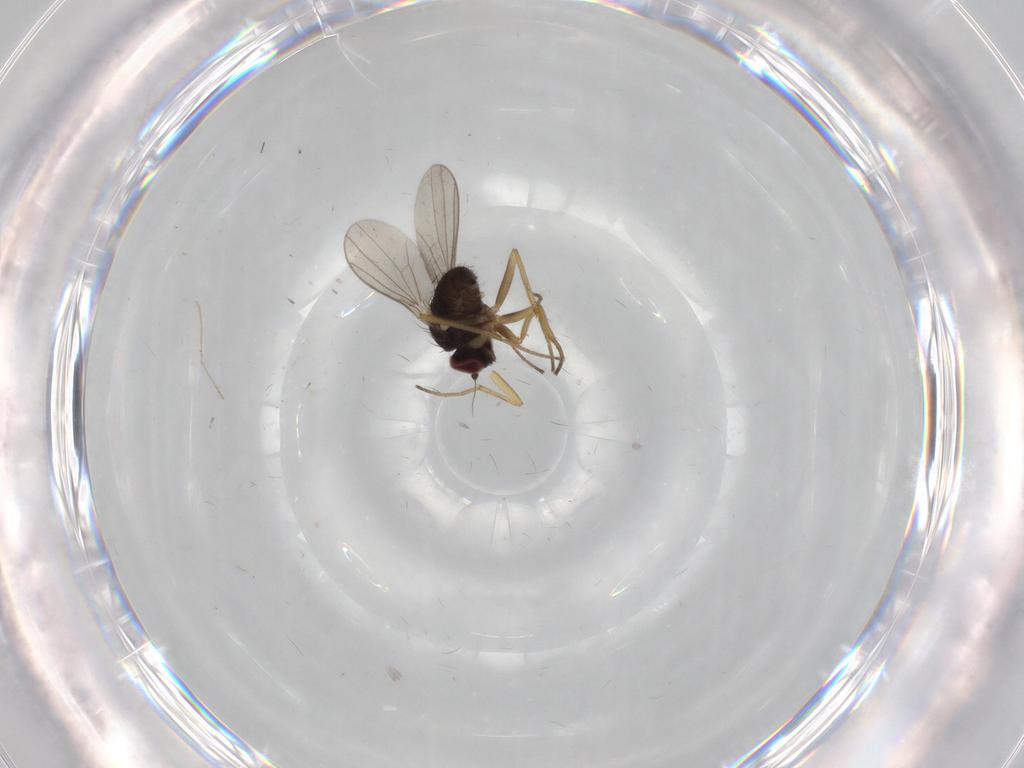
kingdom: Animalia
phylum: Arthropoda
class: Insecta
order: Diptera
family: Dolichopodidae
